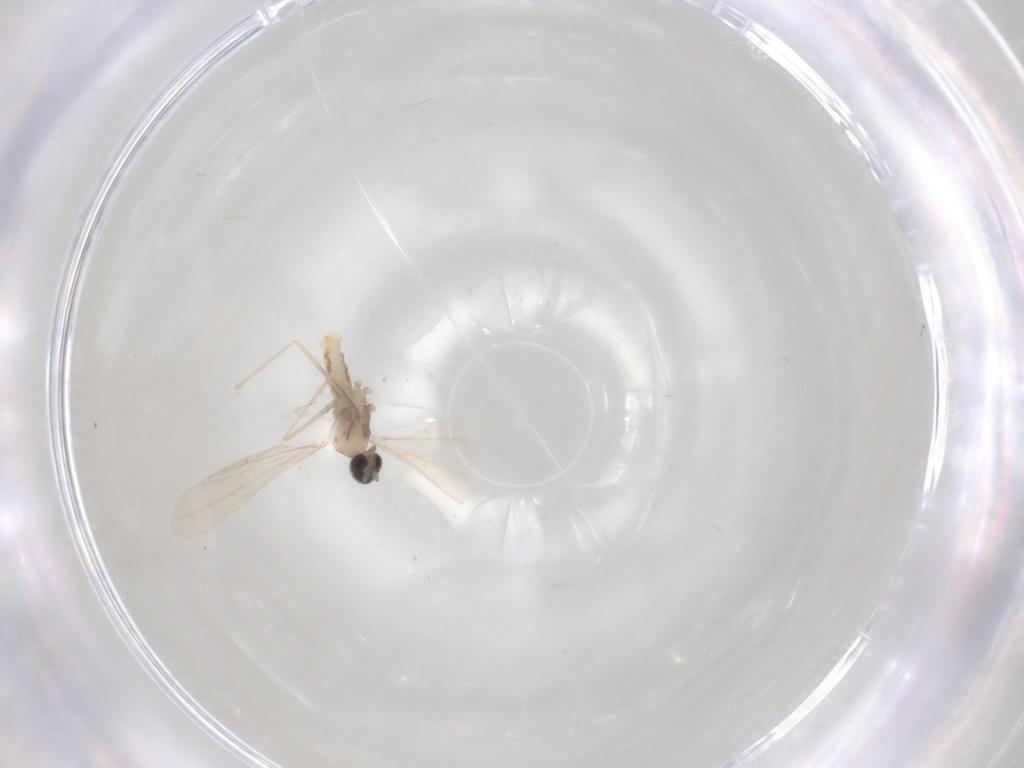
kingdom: Animalia
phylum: Arthropoda
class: Insecta
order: Diptera
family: Cecidomyiidae
